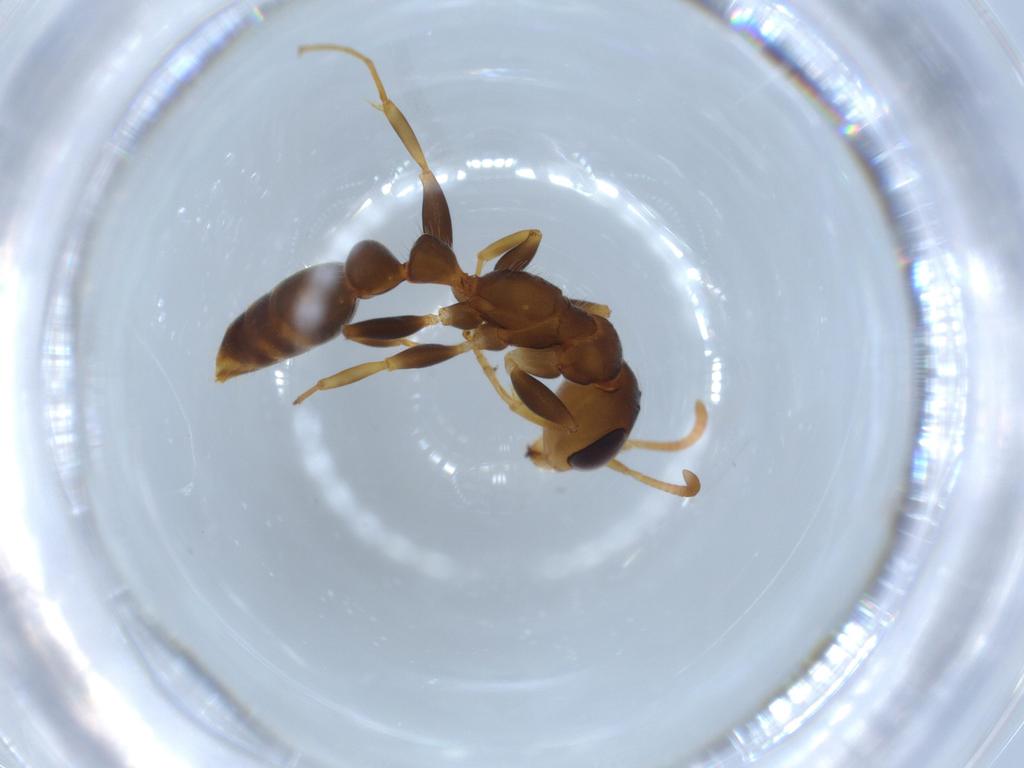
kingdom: Animalia
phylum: Arthropoda
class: Insecta
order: Hymenoptera
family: Formicidae
